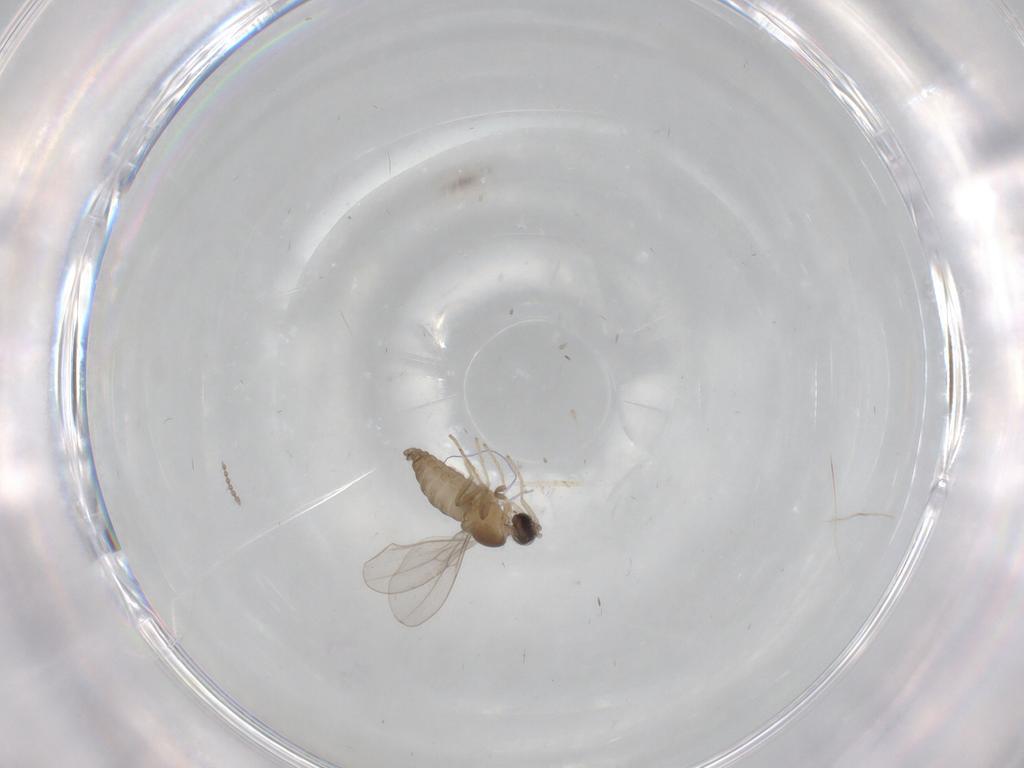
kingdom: Animalia
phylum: Arthropoda
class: Insecta
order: Diptera
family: Cecidomyiidae
